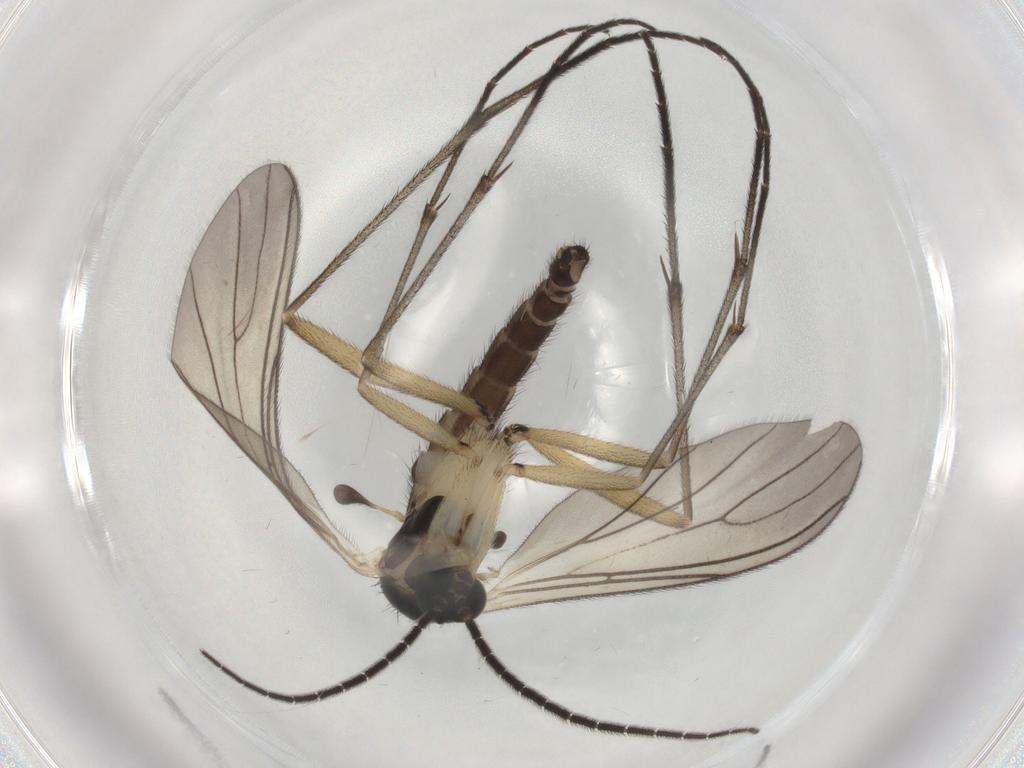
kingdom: Animalia
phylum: Arthropoda
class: Insecta
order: Diptera
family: Sciaridae
